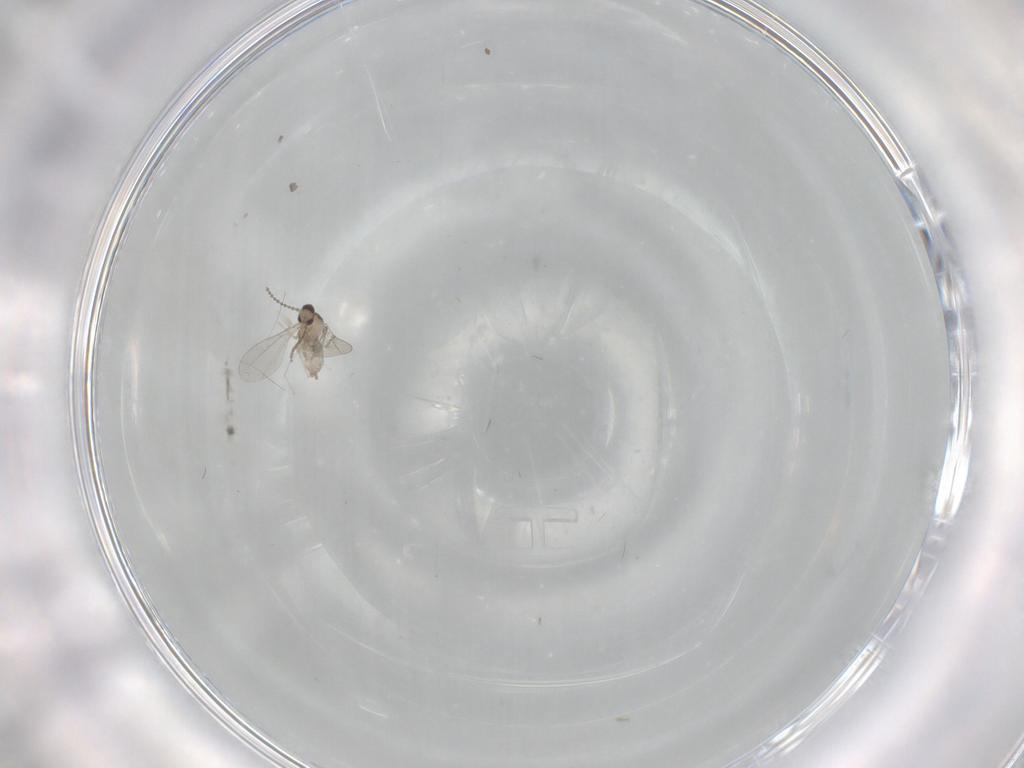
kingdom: Animalia
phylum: Arthropoda
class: Insecta
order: Diptera
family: Cecidomyiidae
